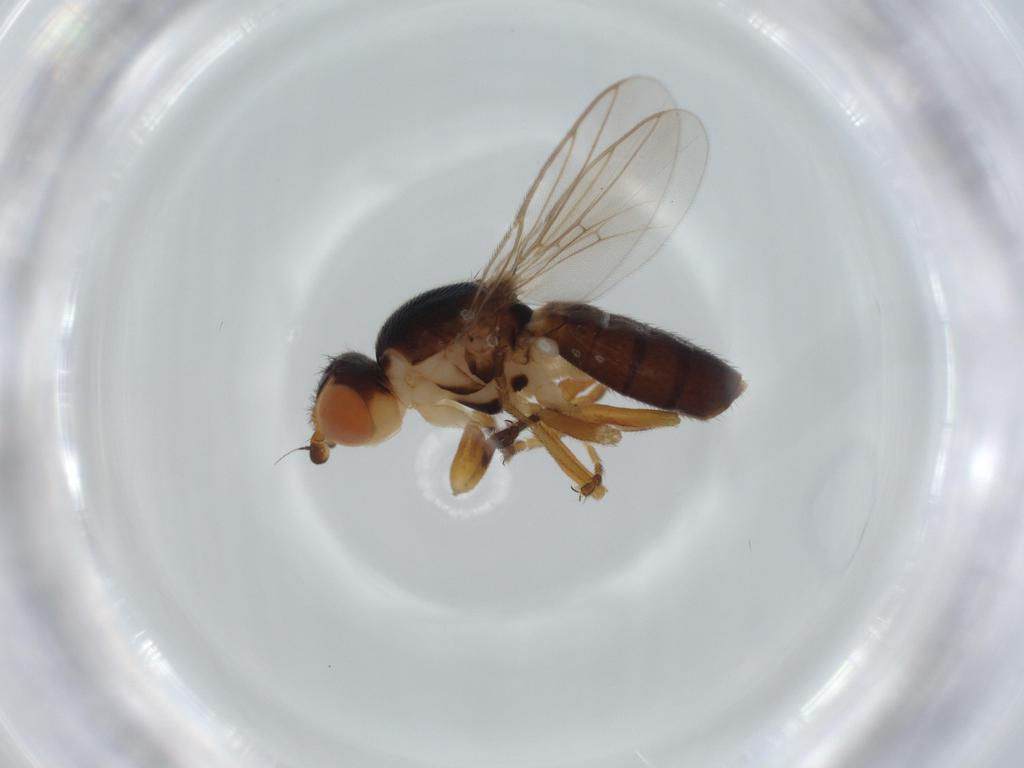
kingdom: Animalia
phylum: Arthropoda
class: Insecta
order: Diptera
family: Chloropidae
